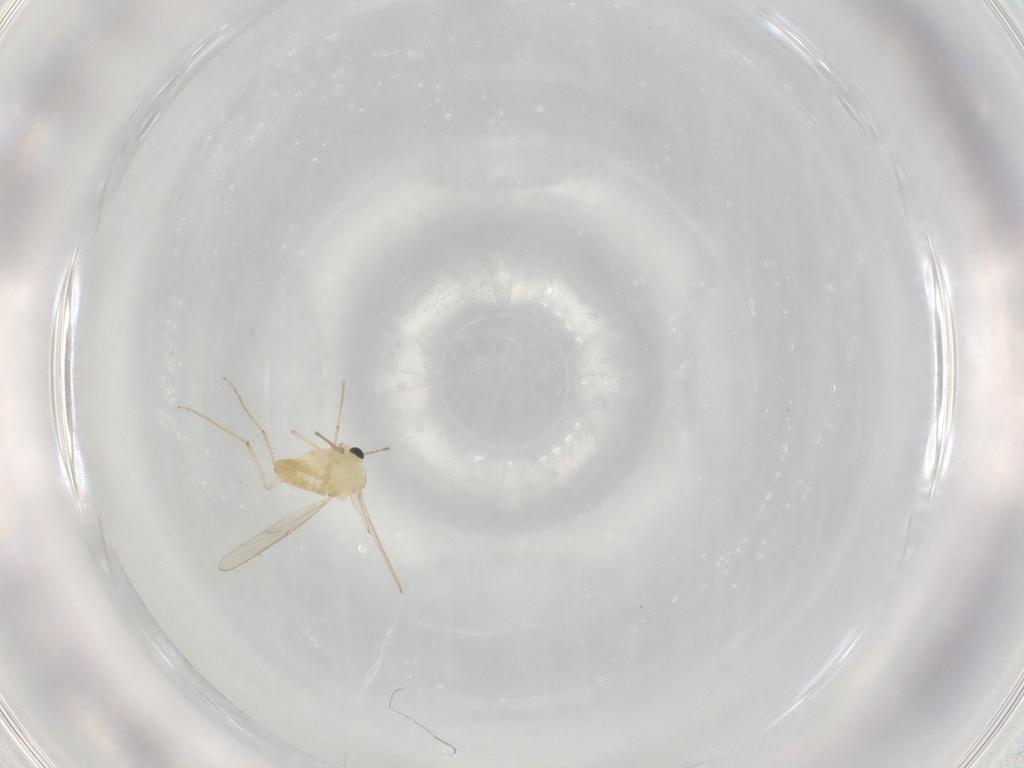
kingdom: Animalia
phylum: Arthropoda
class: Insecta
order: Diptera
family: Chironomidae
